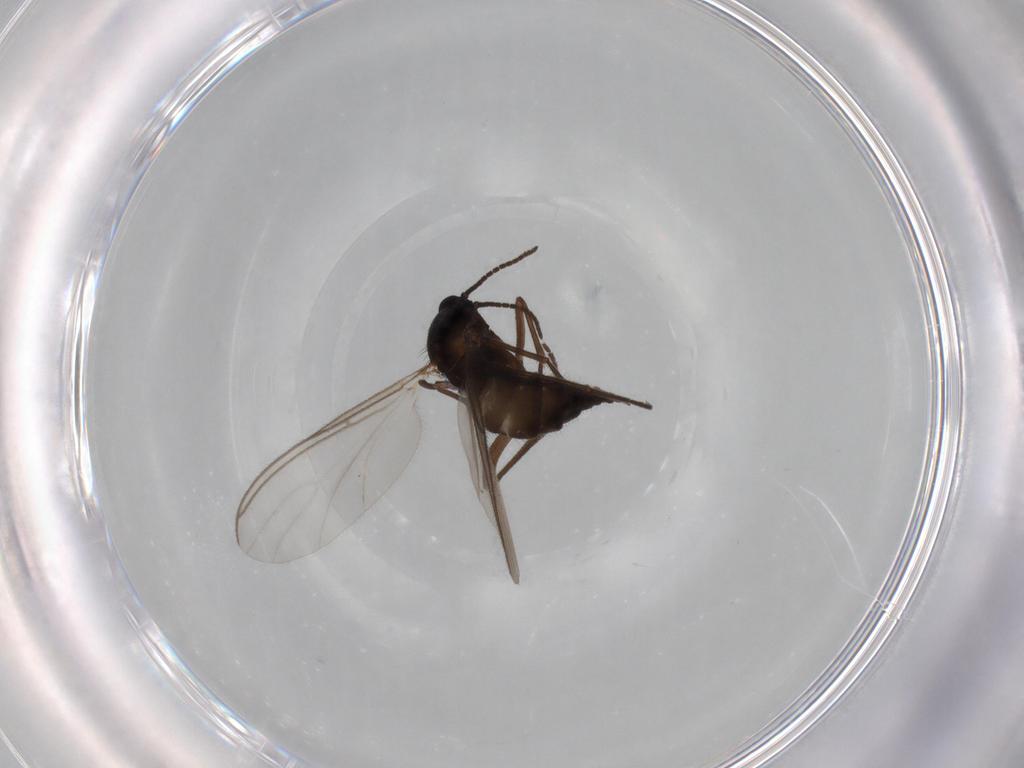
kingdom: Animalia
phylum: Arthropoda
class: Insecta
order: Diptera
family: Sciaridae
